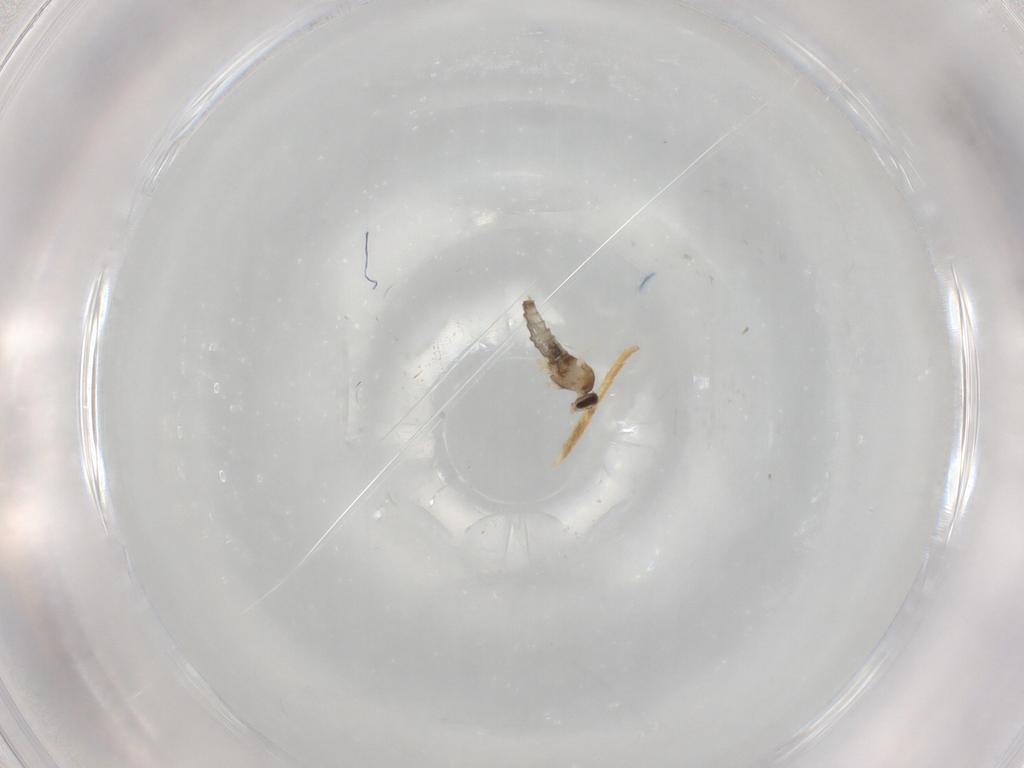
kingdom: Animalia
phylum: Arthropoda
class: Insecta
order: Diptera
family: Cecidomyiidae
